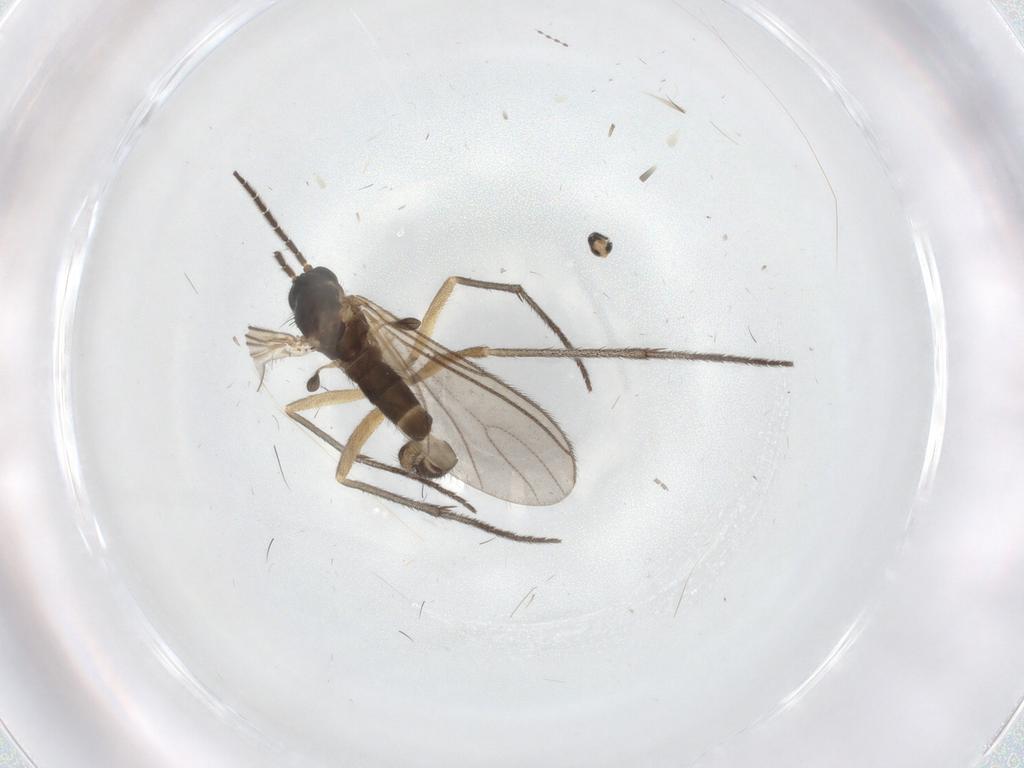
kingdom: Animalia
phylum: Arthropoda
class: Insecta
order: Diptera
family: Sciaridae
